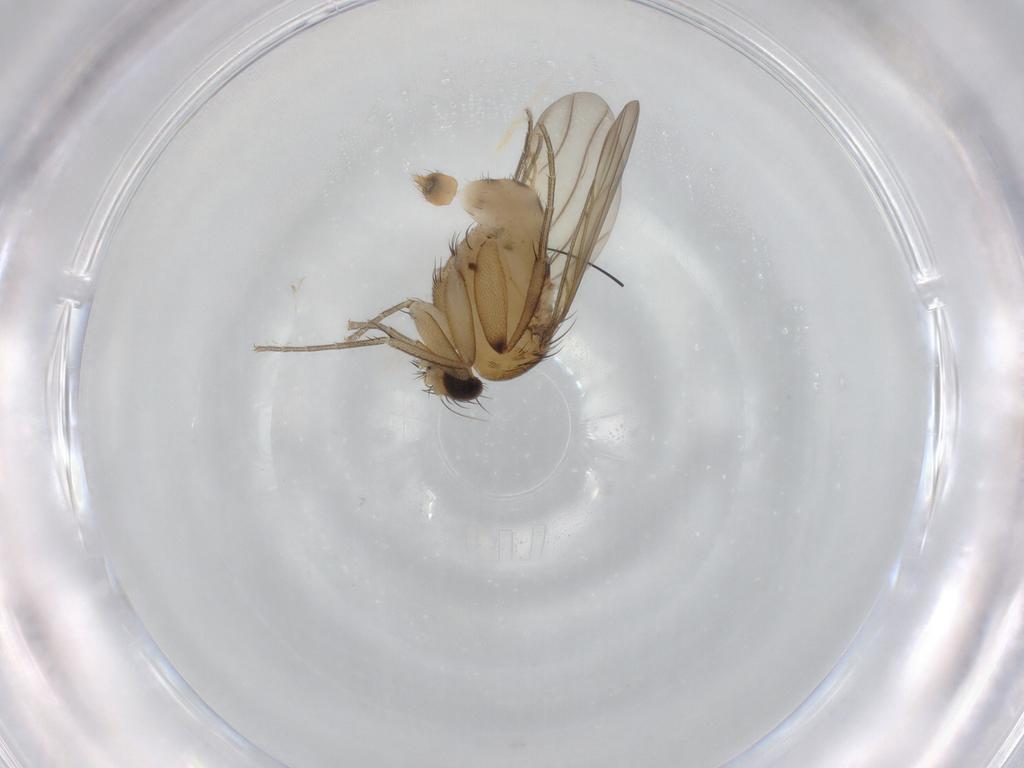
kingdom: Animalia
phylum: Arthropoda
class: Insecta
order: Diptera
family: Phoridae
